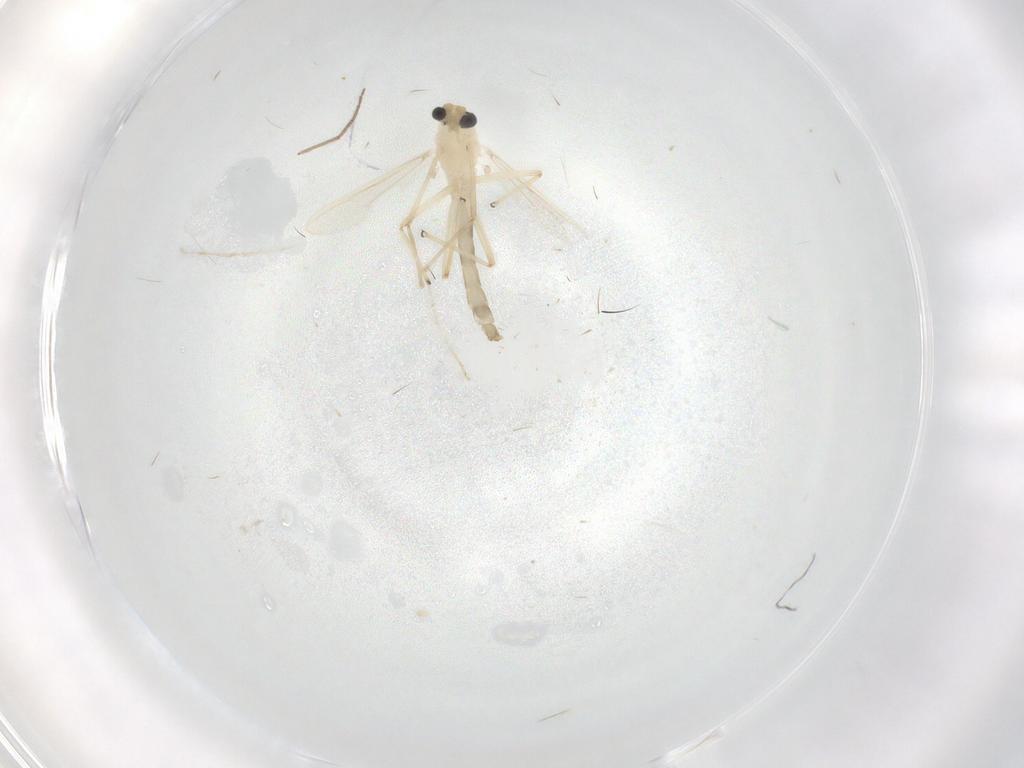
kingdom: Animalia
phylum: Arthropoda
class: Insecta
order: Diptera
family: Chironomidae
